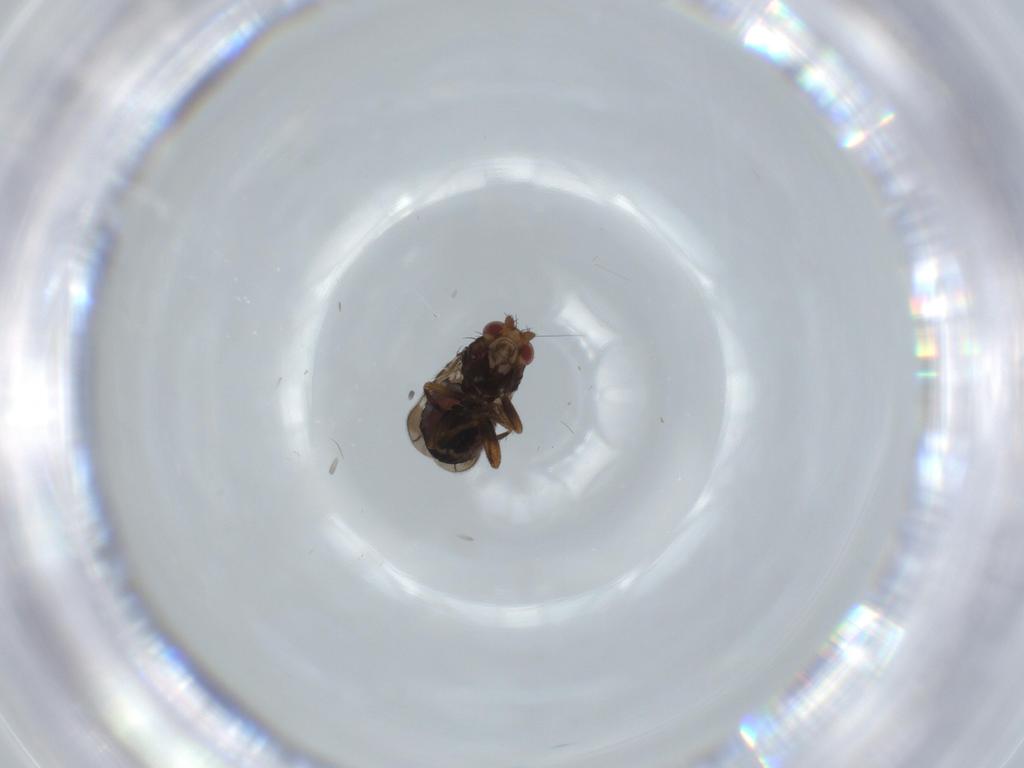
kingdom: Animalia
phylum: Arthropoda
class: Insecta
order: Diptera
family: Sphaeroceridae
